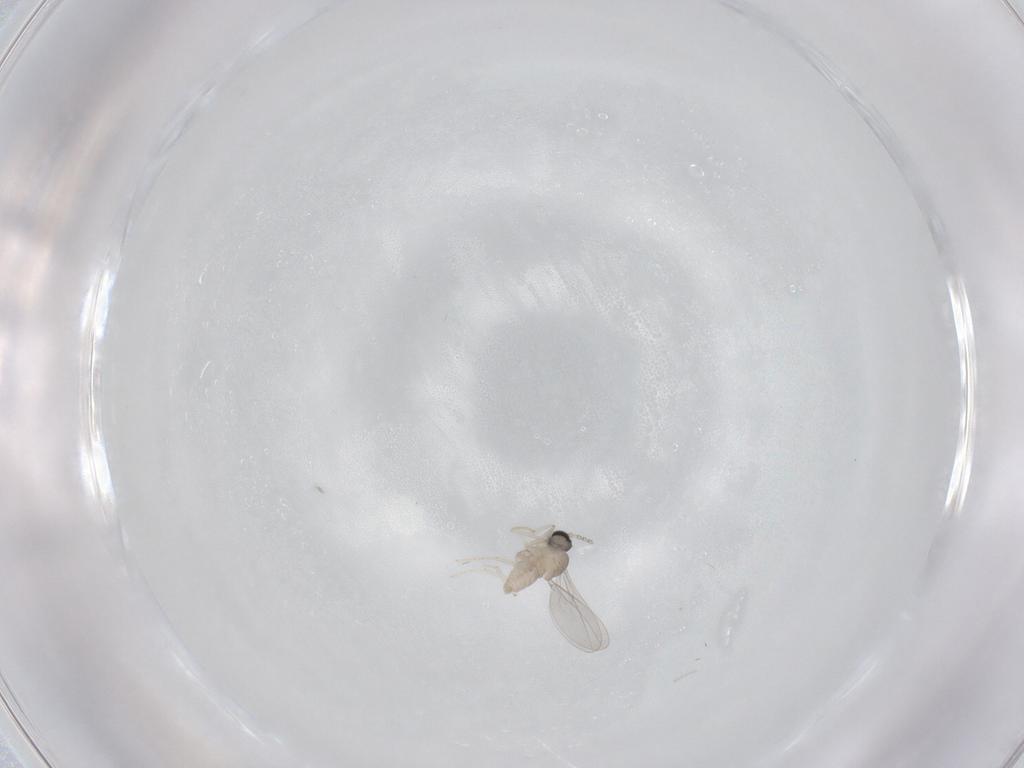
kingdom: Animalia
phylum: Arthropoda
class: Insecta
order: Diptera
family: Cecidomyiidae
